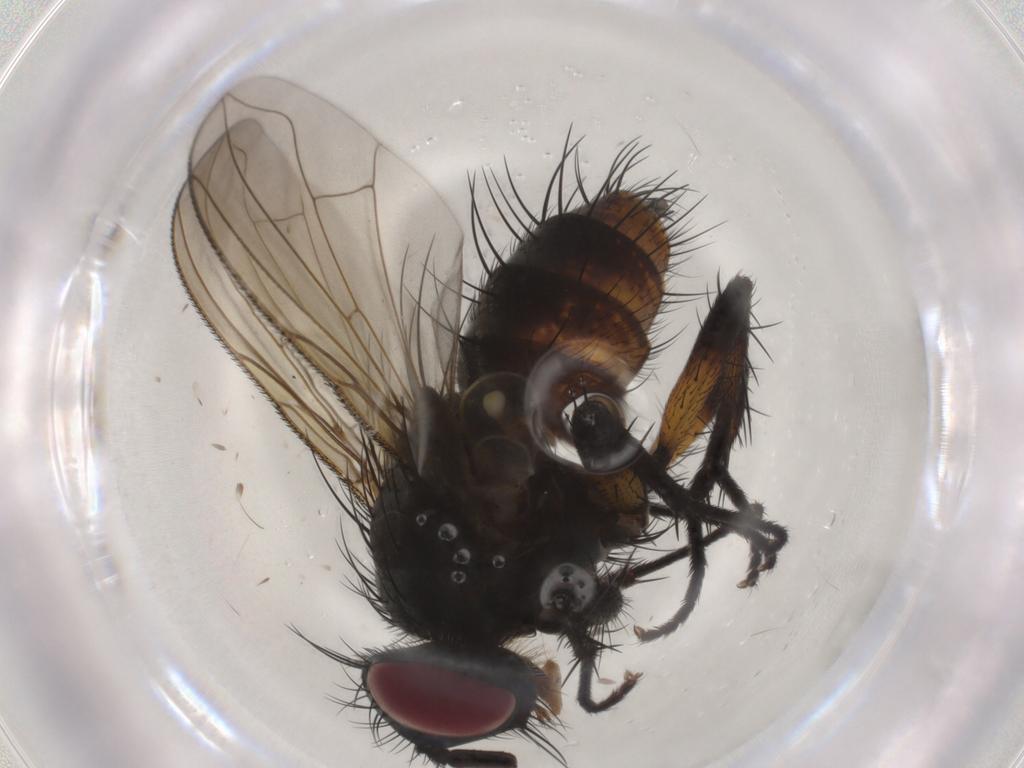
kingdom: Animalia
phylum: Arthropoda
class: Insecta
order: Diptera
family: Tachinidae
